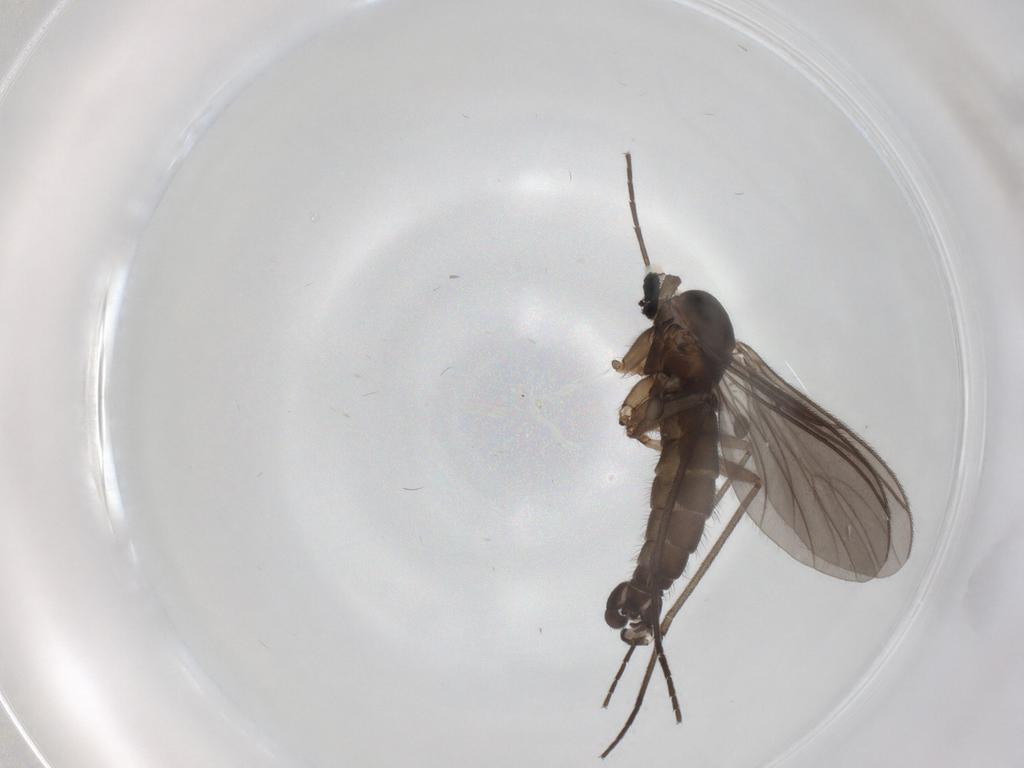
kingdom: Animalia
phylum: Arthropoda
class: Insecta
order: Diptera
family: Sciaridae
